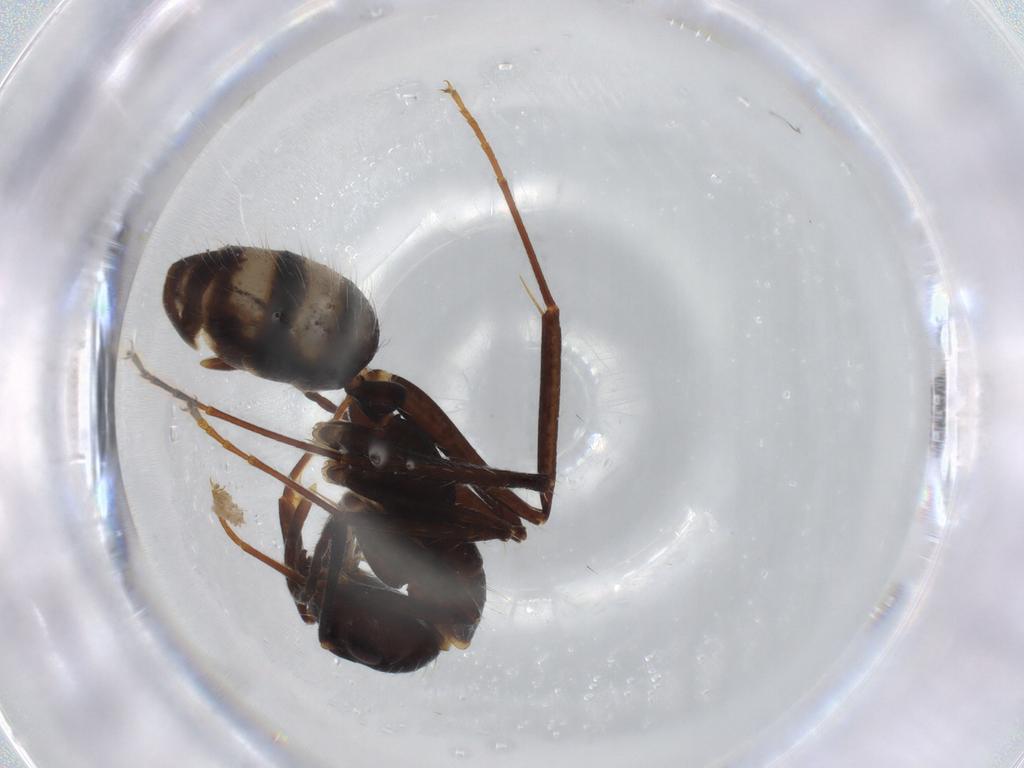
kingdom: Animalia
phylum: Arthropoda
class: Insecta
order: Hymenoptera
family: Formicidae
